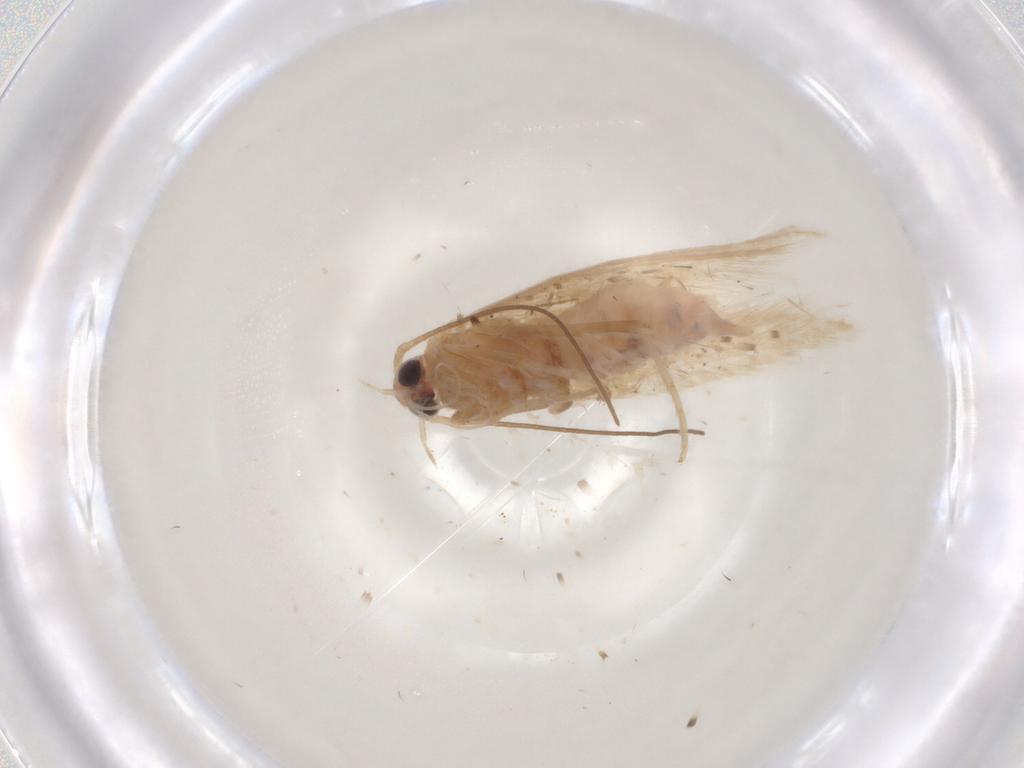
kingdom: Animalia
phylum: Arthropoda
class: Insecta
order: Lepidoptera
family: Coleophoridae
